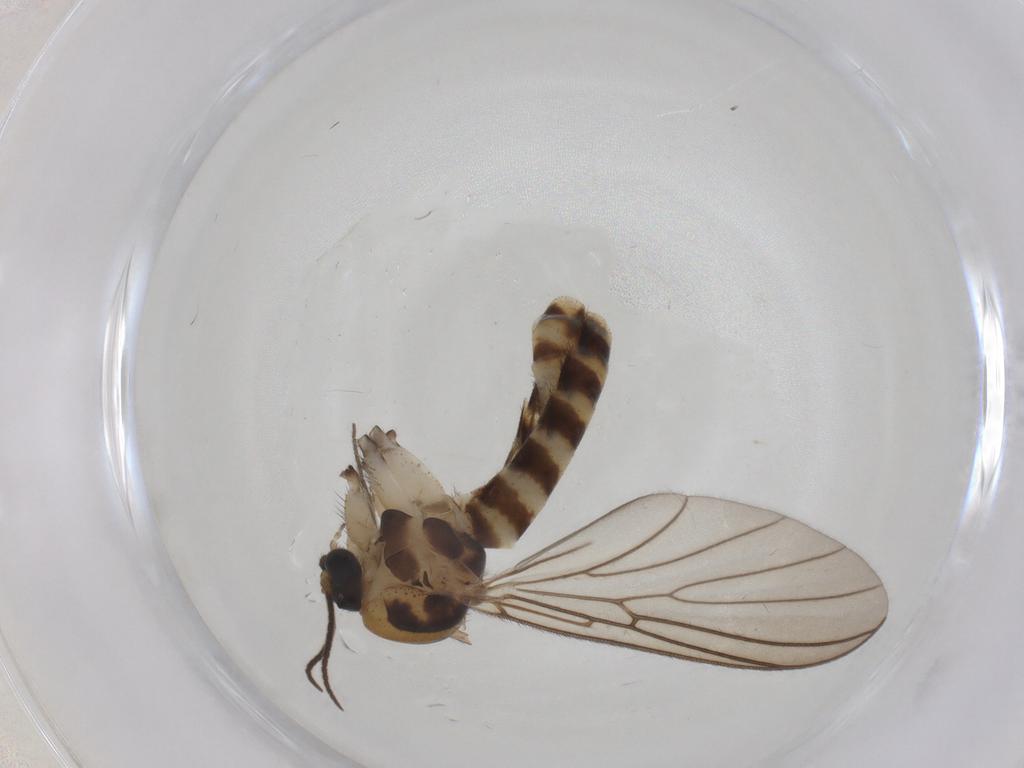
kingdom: Animalia
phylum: Arthropoda
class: Insecta
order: Diptera
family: Mycetophilidae
